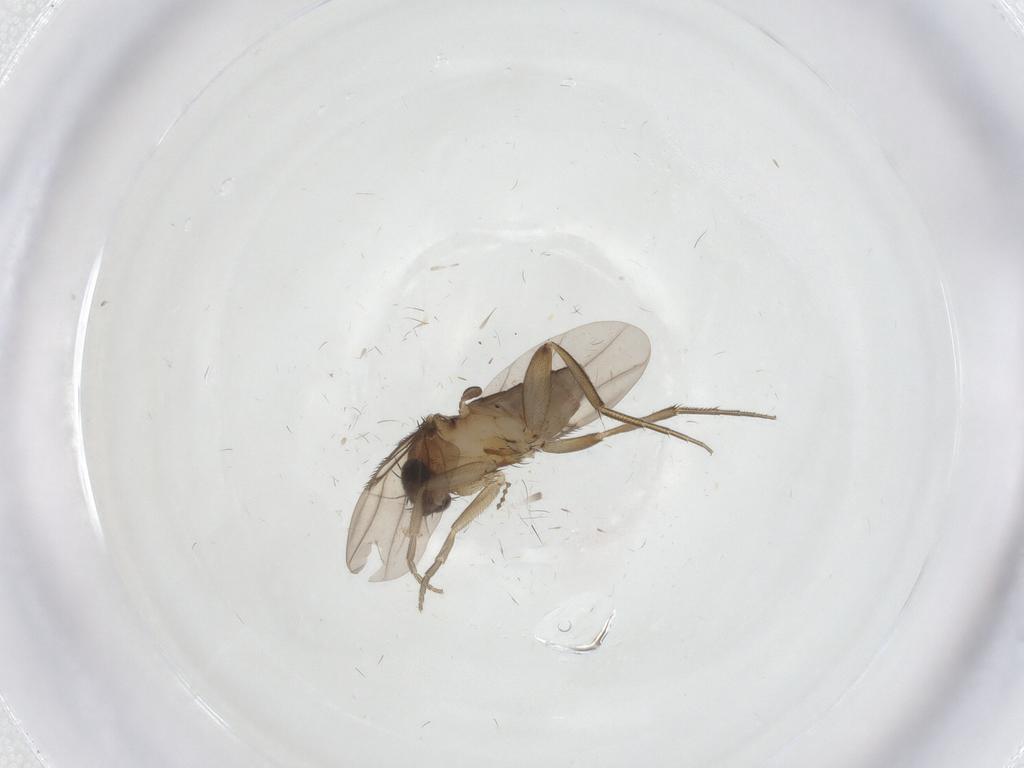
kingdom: Animalia
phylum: Arthropoda
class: Insecta
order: Diptera
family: Phoridae
